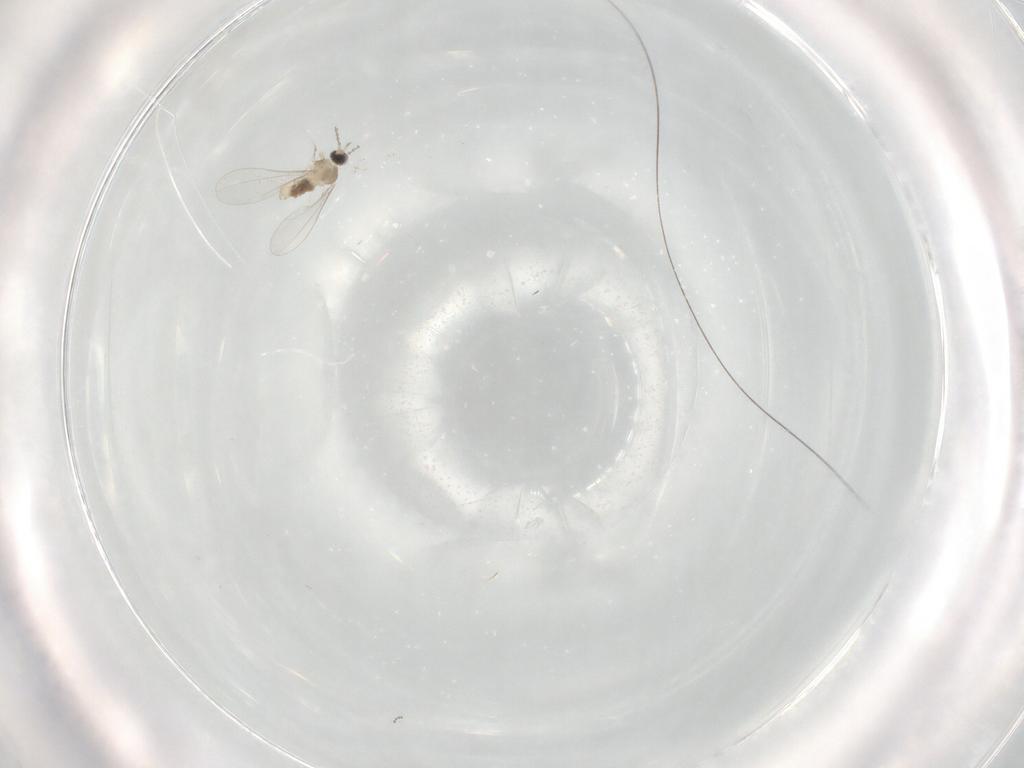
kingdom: Animalia
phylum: Arthropoda
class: Insecta
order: Diptera
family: Cecidomyiidae
